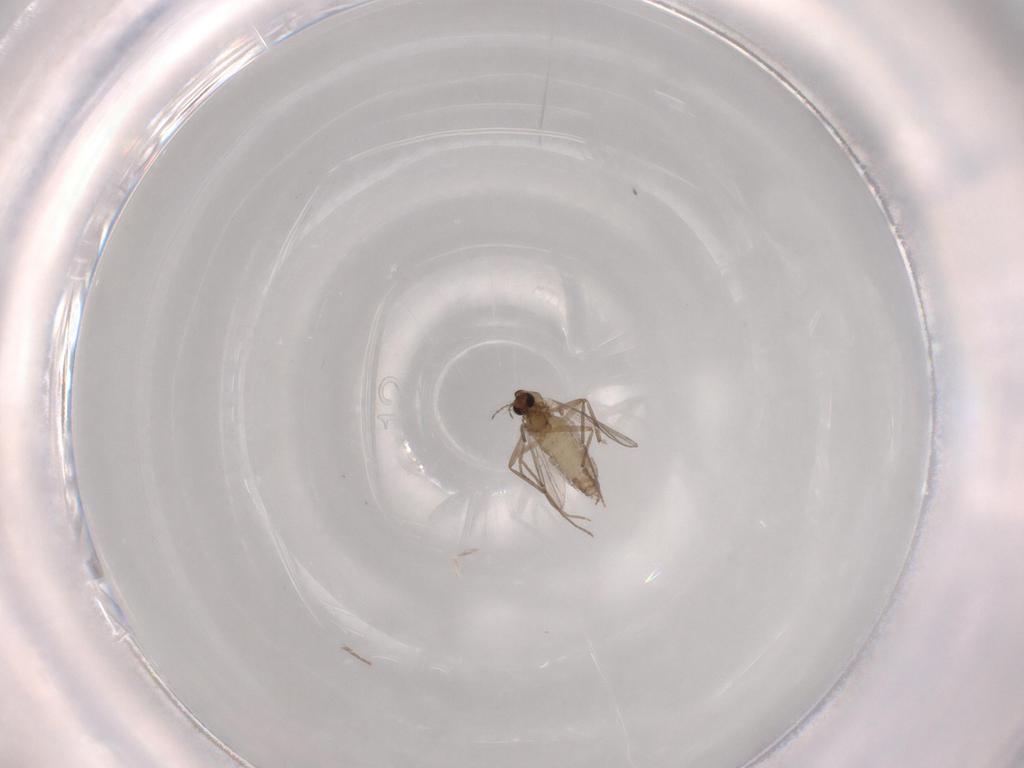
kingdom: Animalia
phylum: Arthropoda
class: Insecta
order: Diptera
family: Chironomidae
